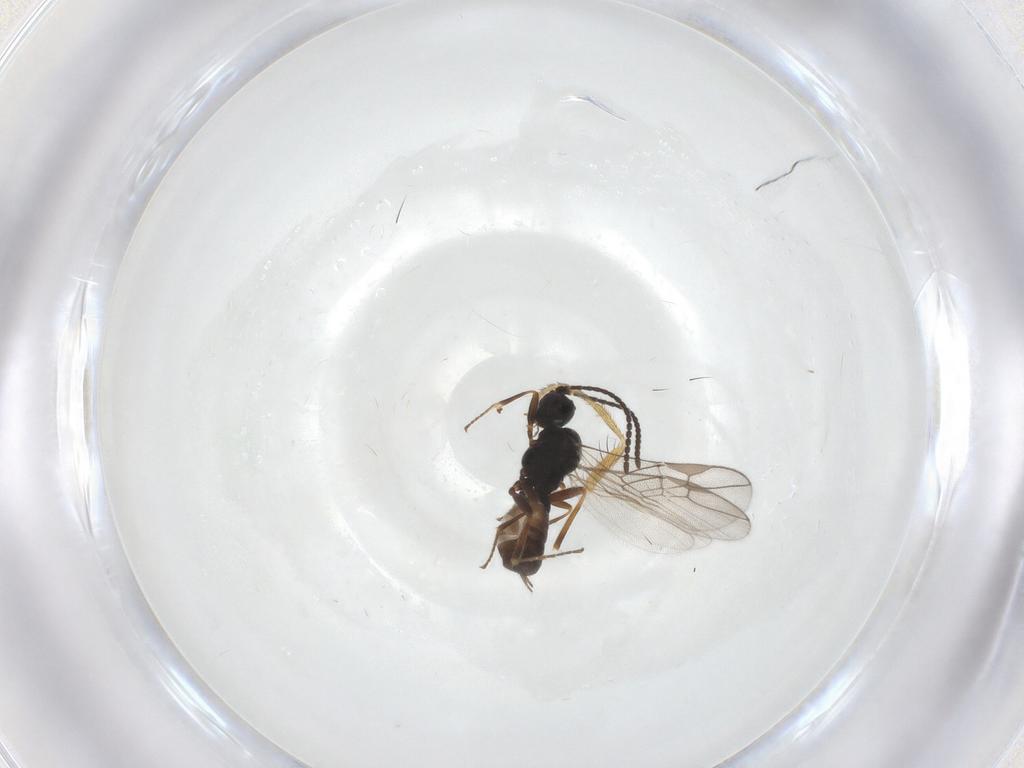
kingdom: Animalia
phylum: Arthropoda
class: Insecta
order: Hymenoptera
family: Braconidae
